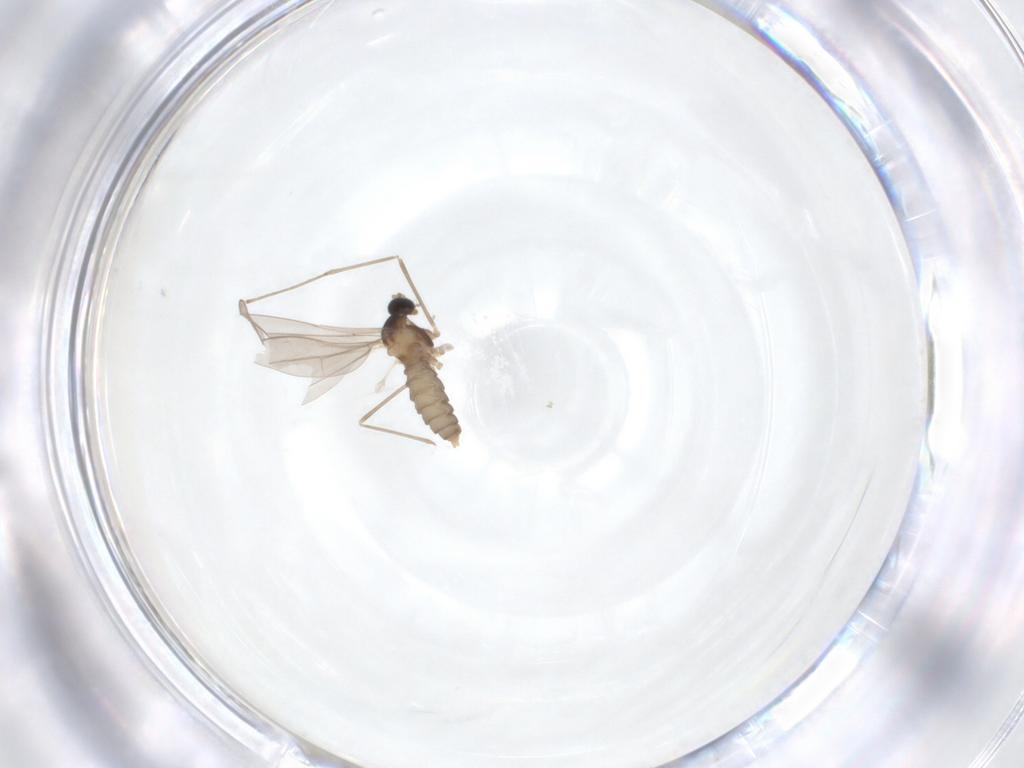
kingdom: Animalia
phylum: Arthropoda
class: Insecta
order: Diptera
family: Cecidomyiidae
